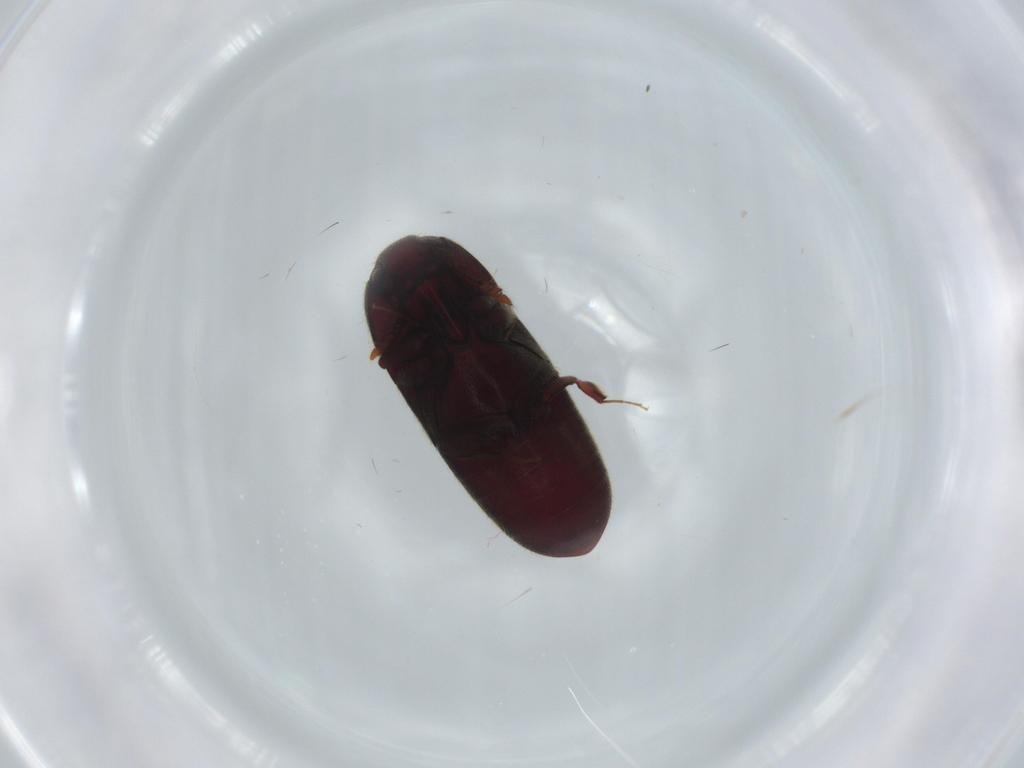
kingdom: Animalia
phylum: Arthropoda
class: Insecta
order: Coleoptera
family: Throscidae
